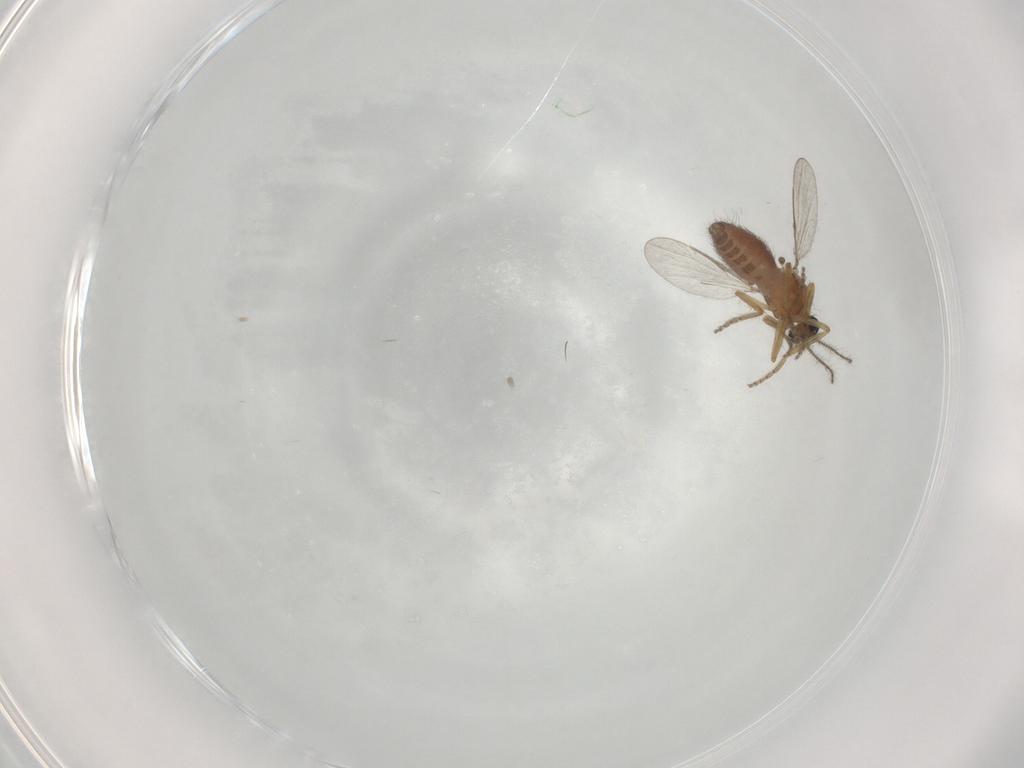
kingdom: Animalia
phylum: Arthropoda
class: Insecta
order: Diptera
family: Ceratopogonidae
